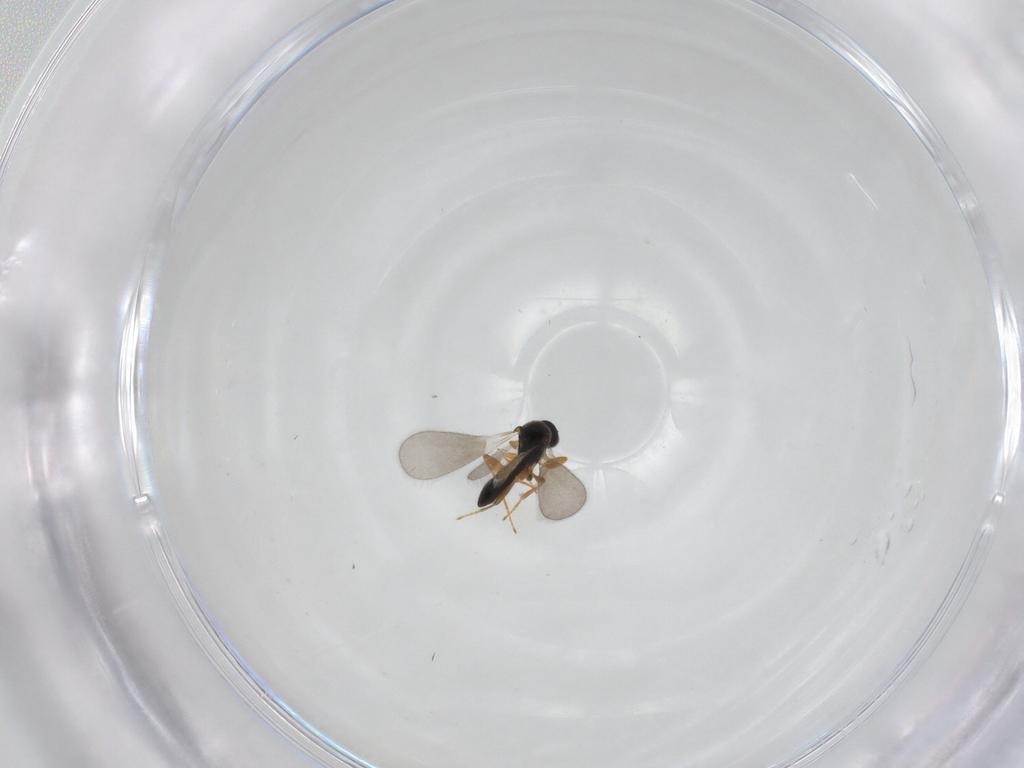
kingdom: Animalia
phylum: Arthropoda
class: Insecta
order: Hymenoptera
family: Platygastridae
